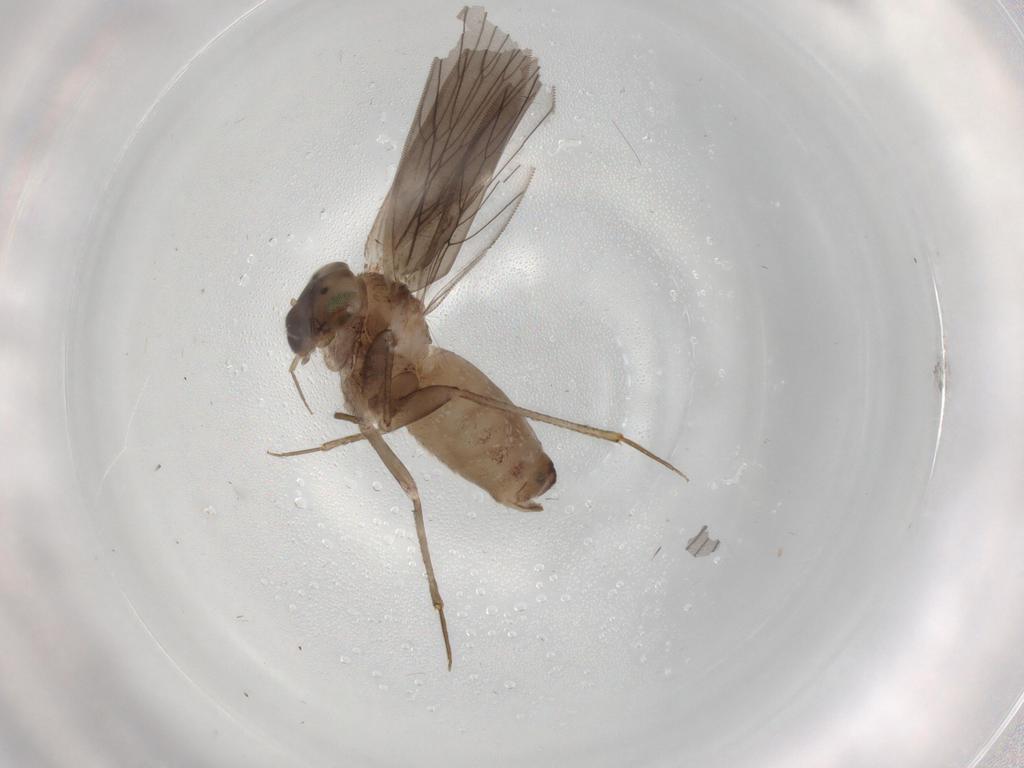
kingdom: Animalia
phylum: Arthropoda
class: Insecta
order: Psocodea
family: Lepidopsocidae
